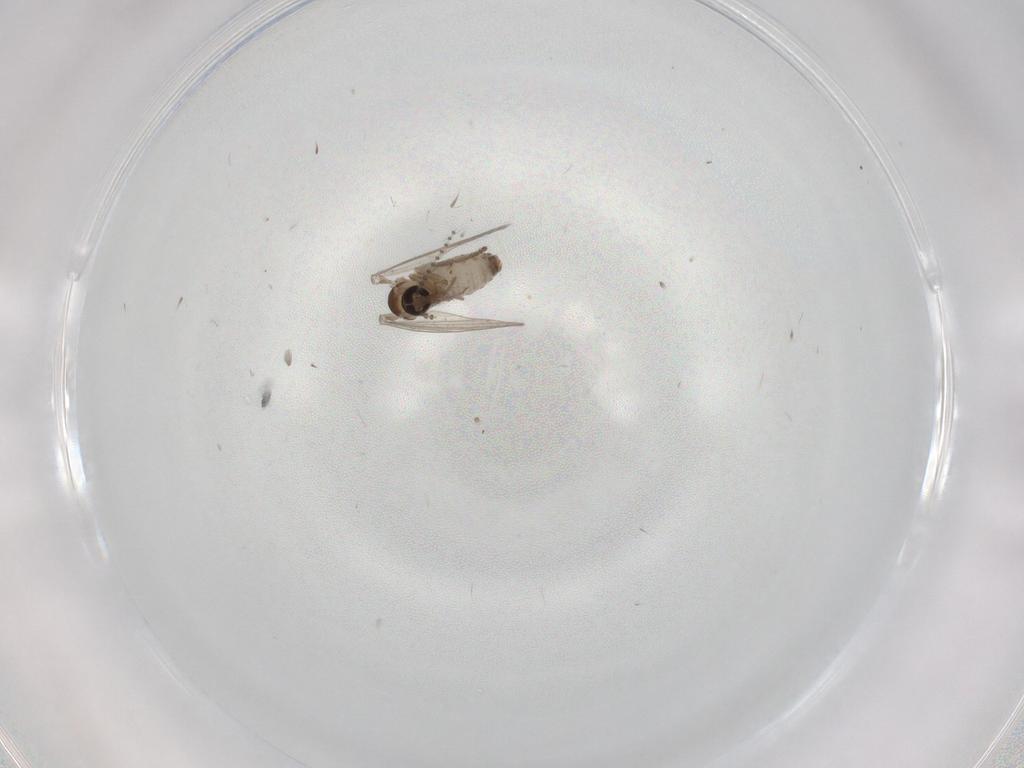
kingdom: Animalia
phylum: Arthropoda
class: Insecta
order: Diptera
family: Psychodidae
